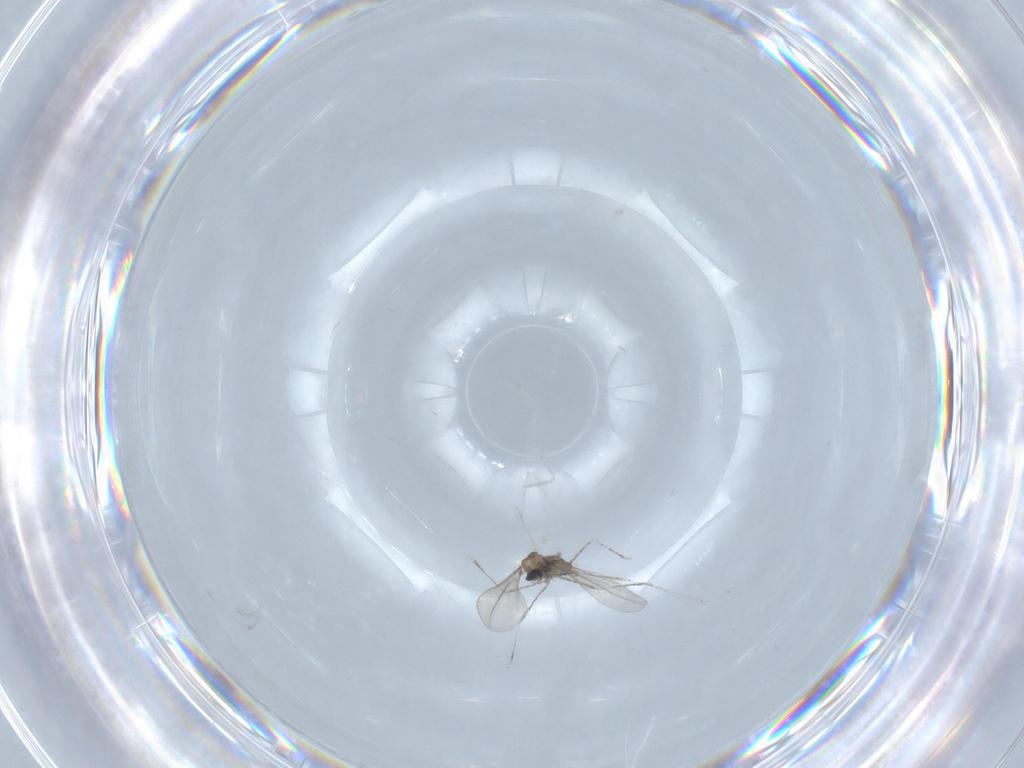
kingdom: Animalia
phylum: Arthropoda
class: Insecta
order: Diptera
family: Cecidomyiidae
